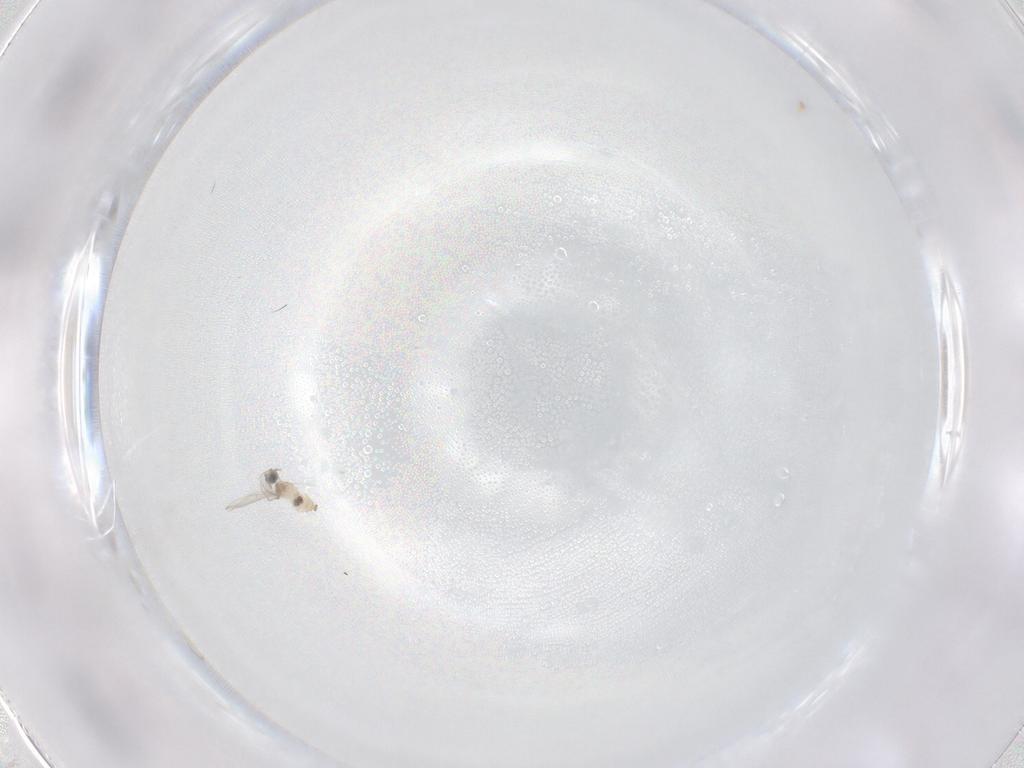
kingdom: Animalia
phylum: Arthropoda
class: Insecta
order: Diptera
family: Cecidomyiidae
